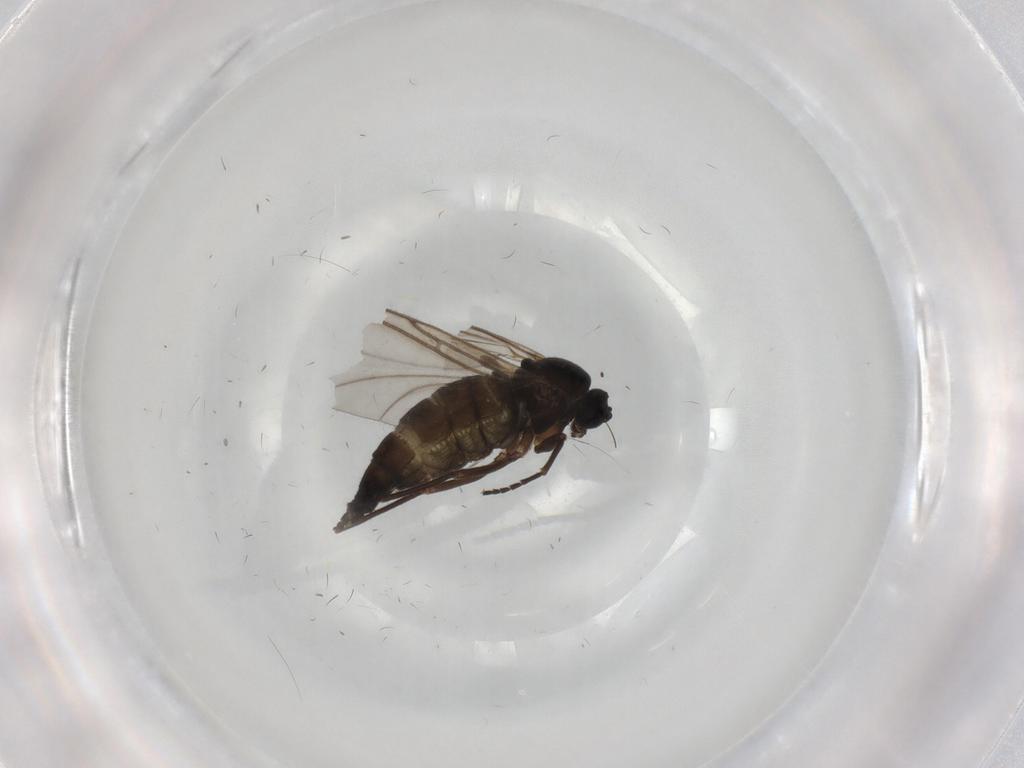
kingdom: Animalia
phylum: Arthropoda
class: Insecta
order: Diptera
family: Sciaridae
